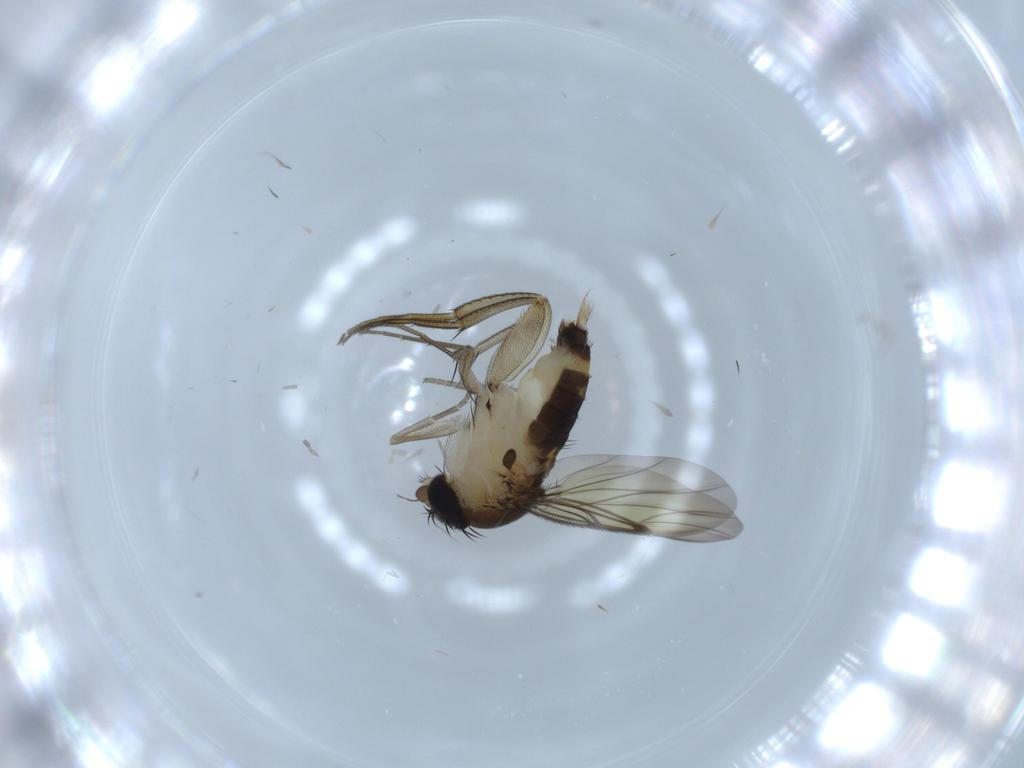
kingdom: Animalia
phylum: Arthropoda
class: Insecta
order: Diptera
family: Phoridae
